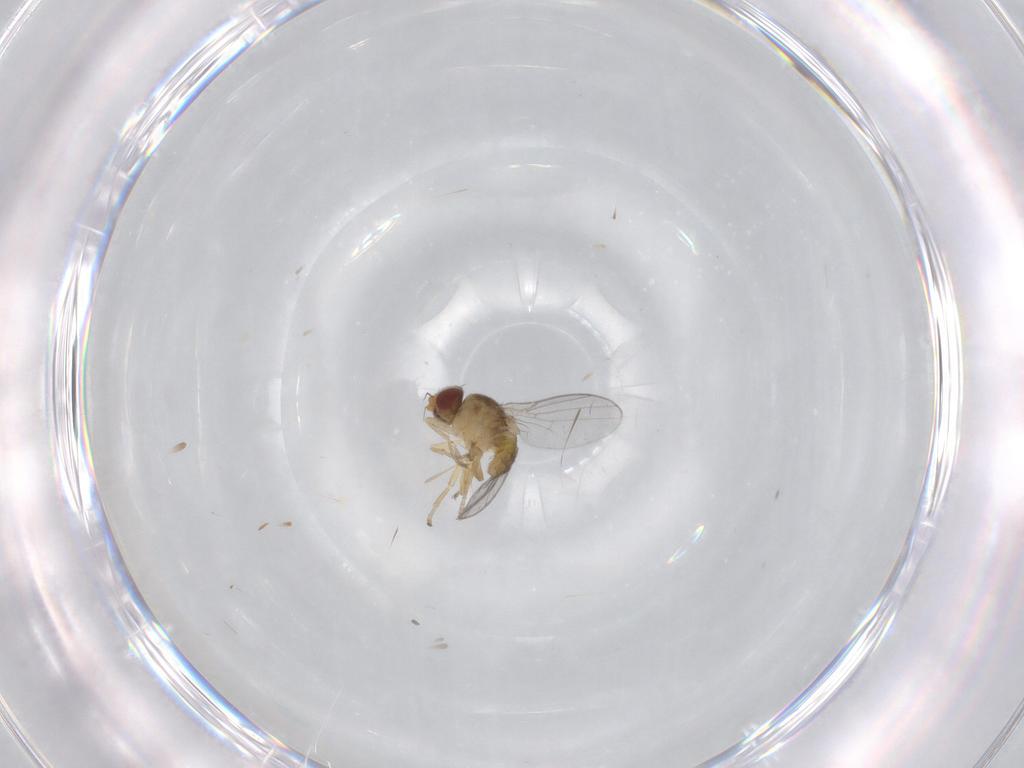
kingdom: Animalia
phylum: Arthropoda
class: Insecta
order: Diptera
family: Chloropidae
